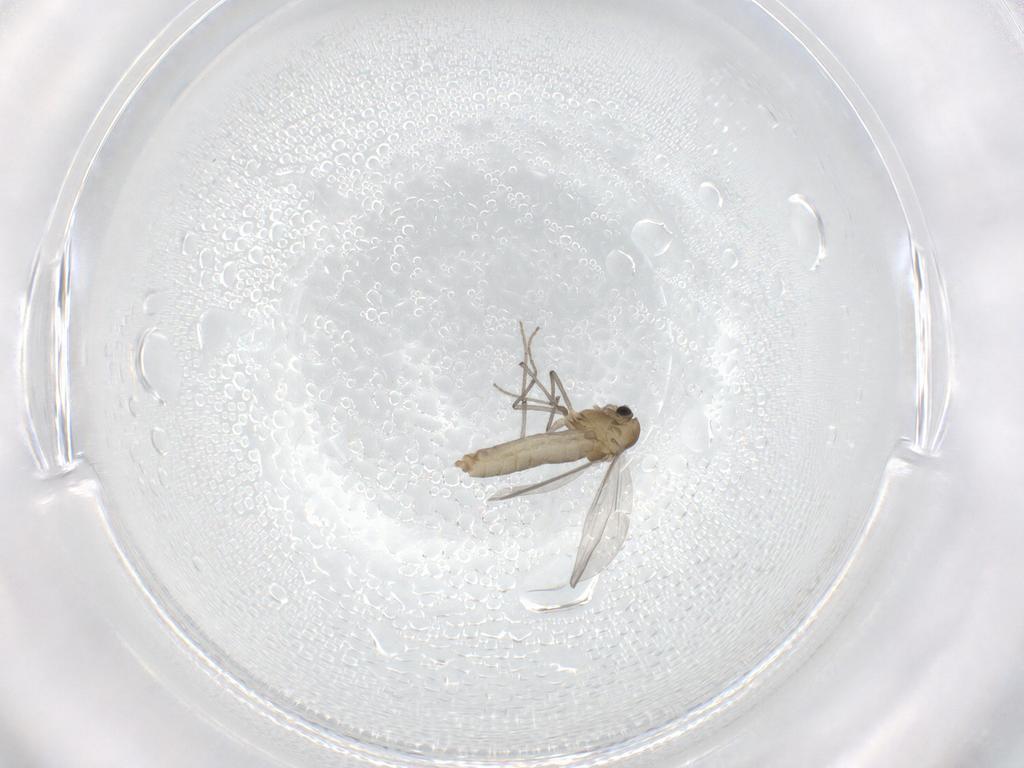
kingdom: Animalia
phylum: Arthropoda
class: Insecta
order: Diptera
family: Chironomidae
